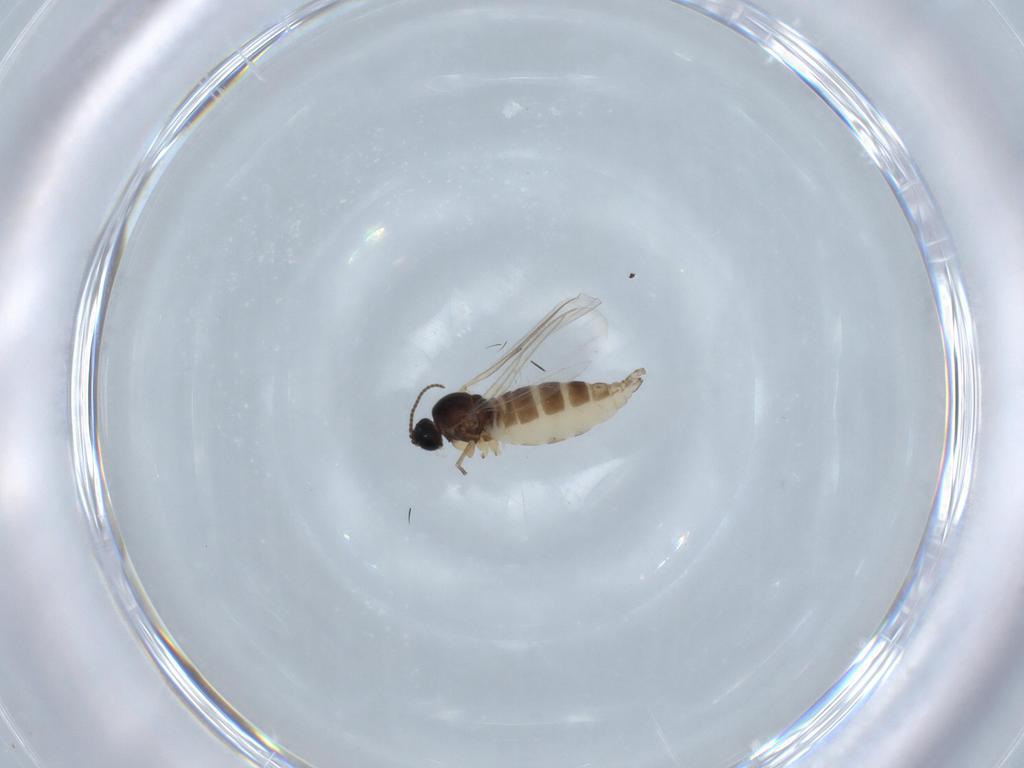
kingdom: Animalia
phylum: Arthropoda
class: Insecta
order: Diptera
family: Sciaridae
